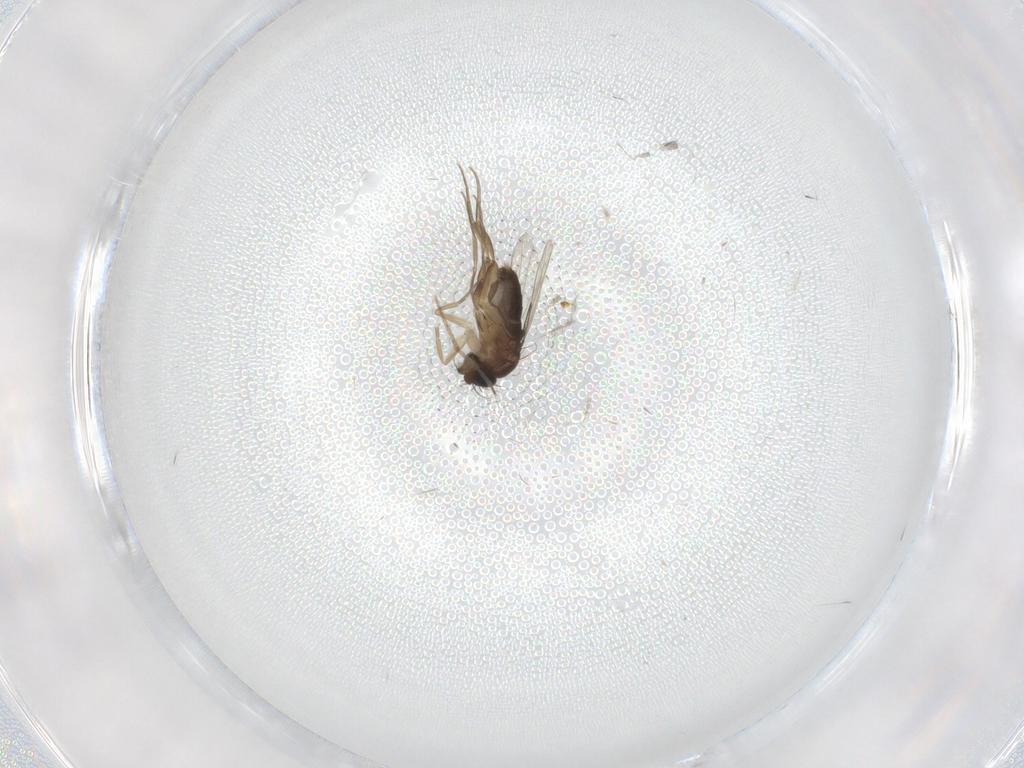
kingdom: Animalia
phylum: Arthropoda
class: Insecta
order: Diptera
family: Phoridae
